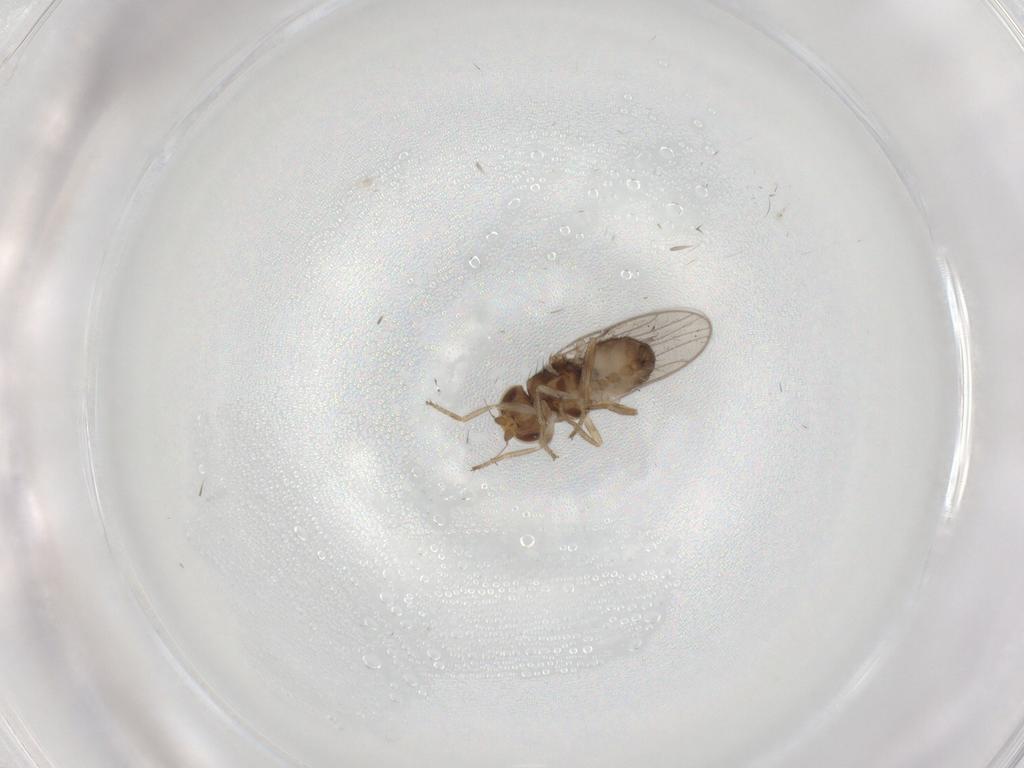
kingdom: Animalia
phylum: Arthropoda
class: Insecta
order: Diptera
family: Chloropidae
